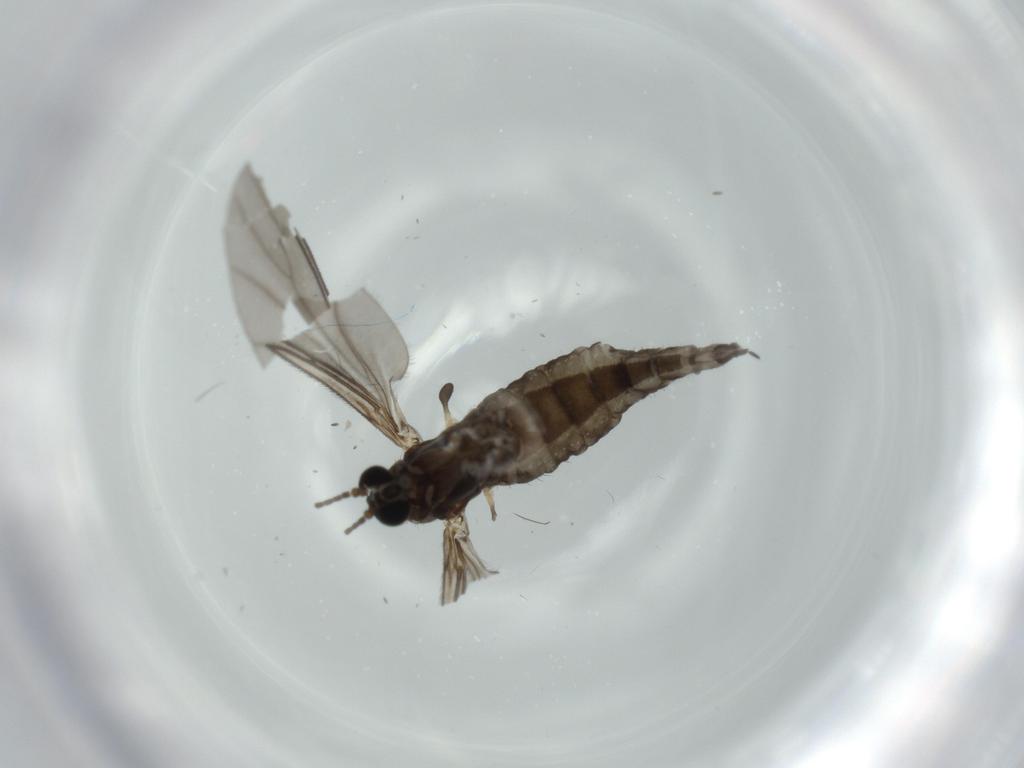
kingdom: Animalia
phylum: Arthropoda
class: Insecta
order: Diptera
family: Sciaridae
